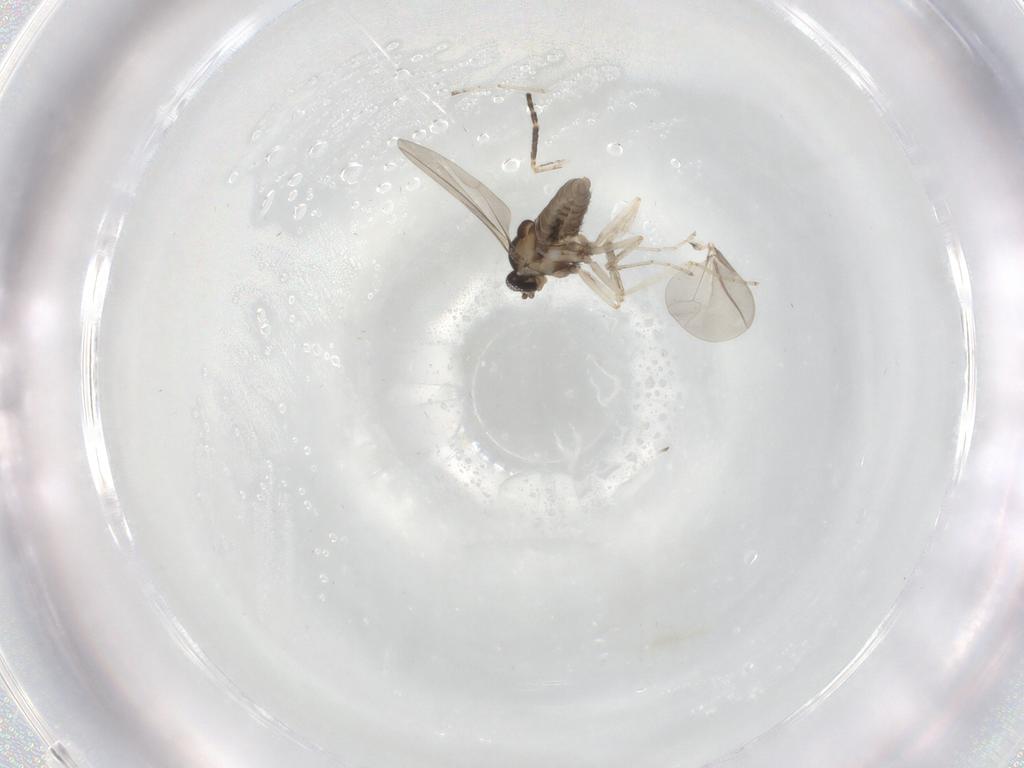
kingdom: Animalia
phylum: Arthropoda
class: Insecta
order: Diptera
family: Cecidomyiidae
